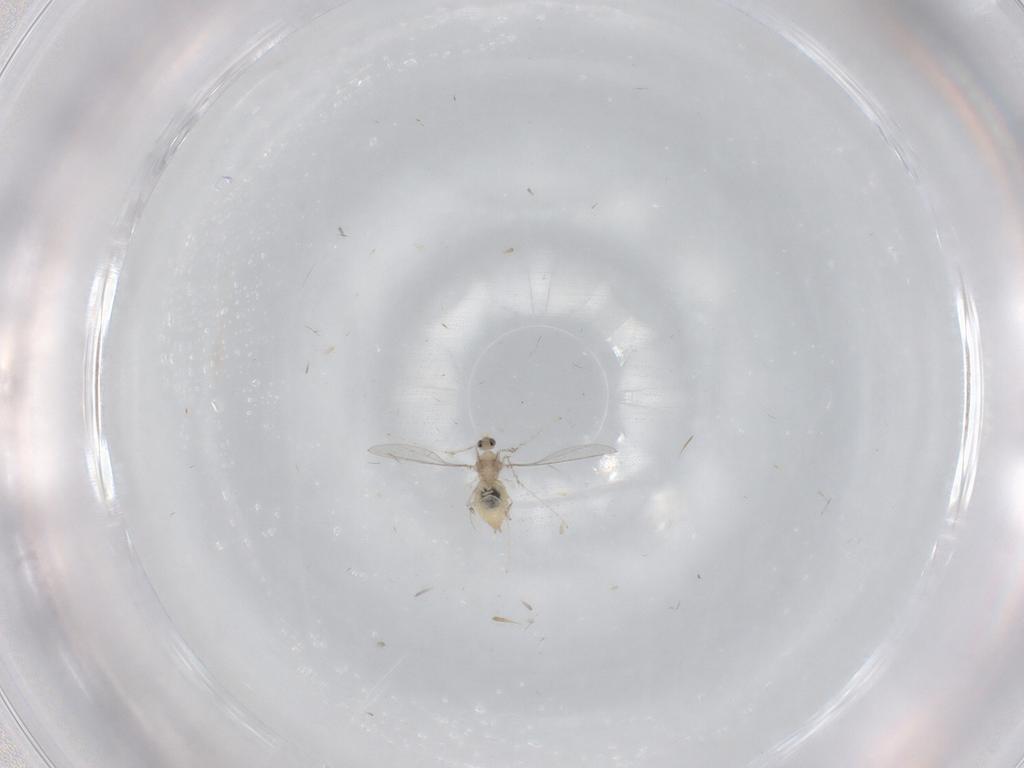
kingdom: Animalia
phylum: Arthropoda
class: Insecta
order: Diptera
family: Cecidomyiidae
